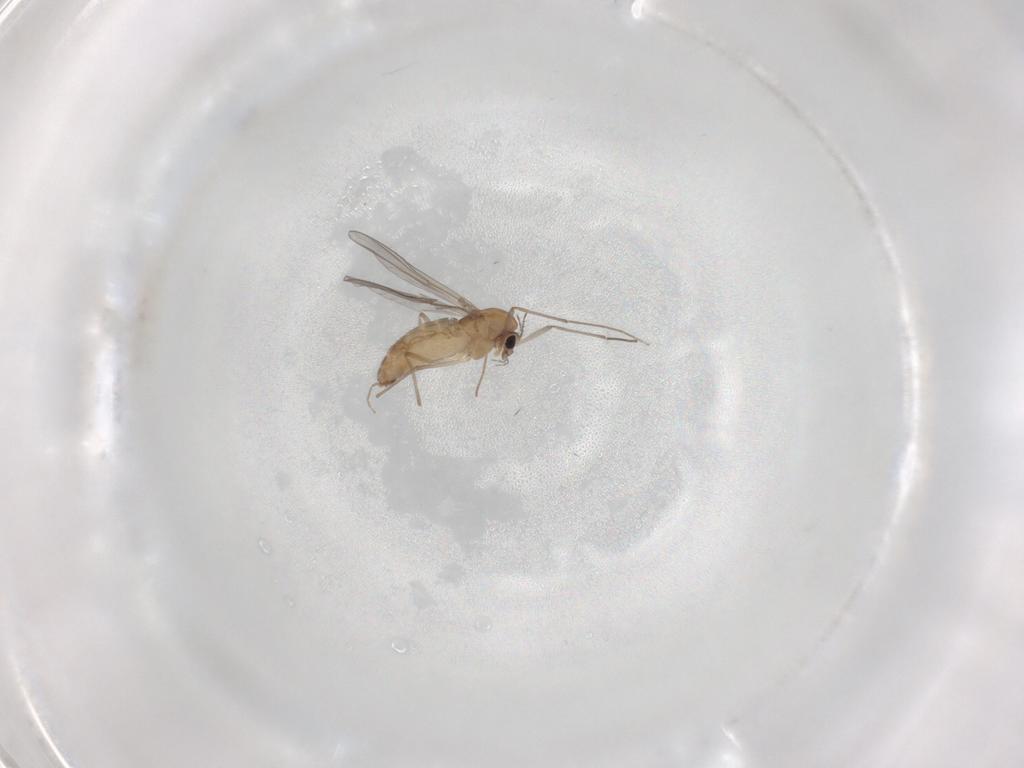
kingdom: Animalia
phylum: Arthropoda
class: Insecta
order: Diptera
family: Chironomidae
